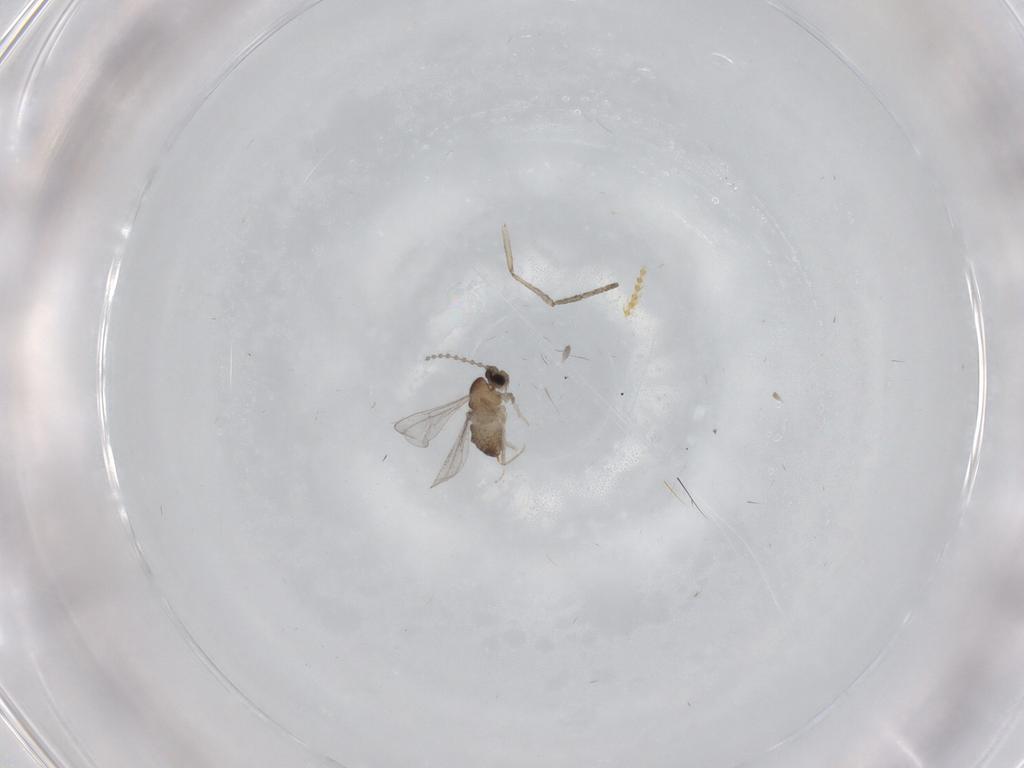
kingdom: Animalia
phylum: Arthropoda
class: Insecta
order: Diptera
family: Cecidomyiidae
